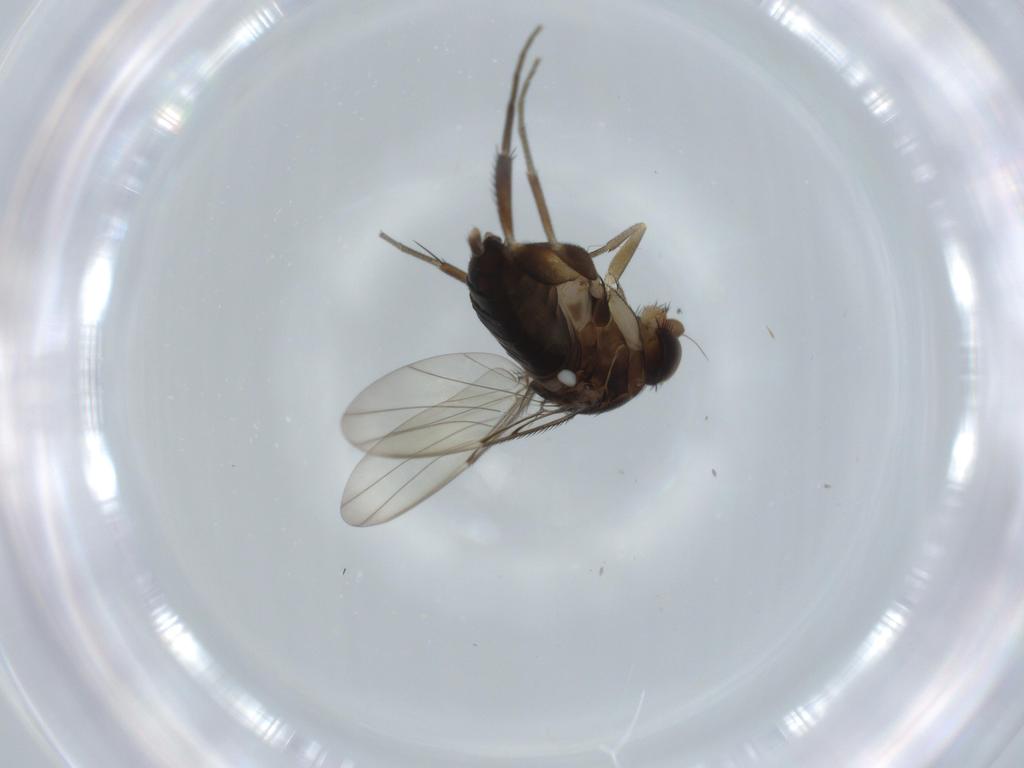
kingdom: Animalia
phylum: Arthropoda
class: Insecta
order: Diptera
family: Phoridae
